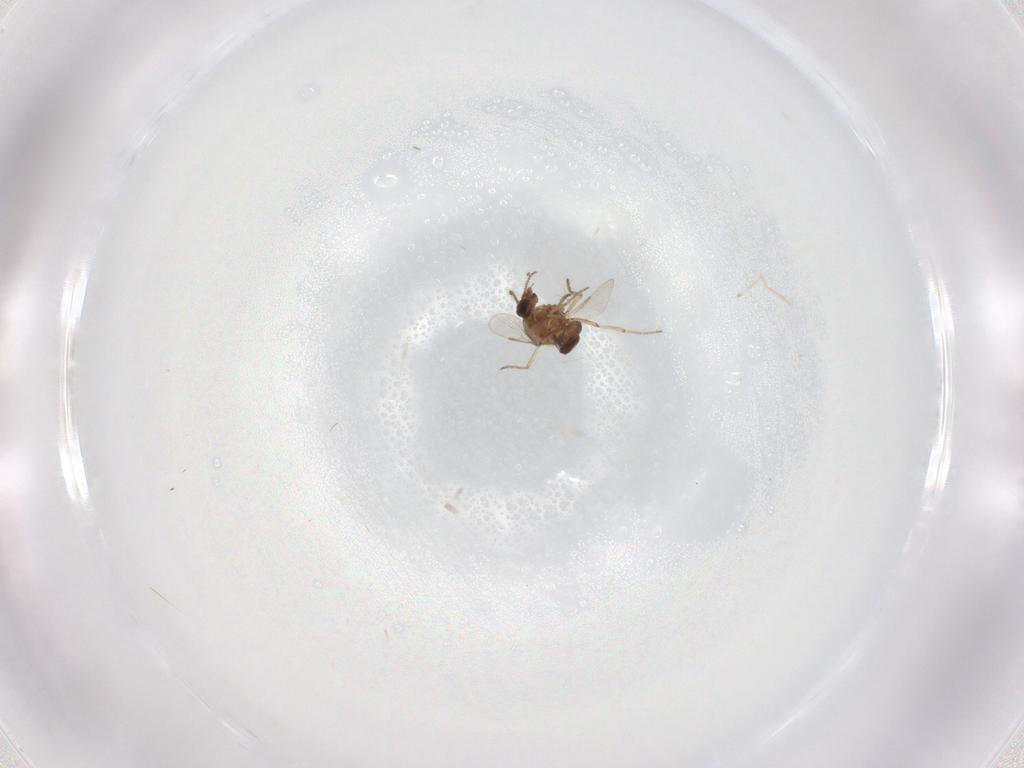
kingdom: Animalia
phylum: Arthropoda
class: Insecta
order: Diptera
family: Ceratopogonidae
